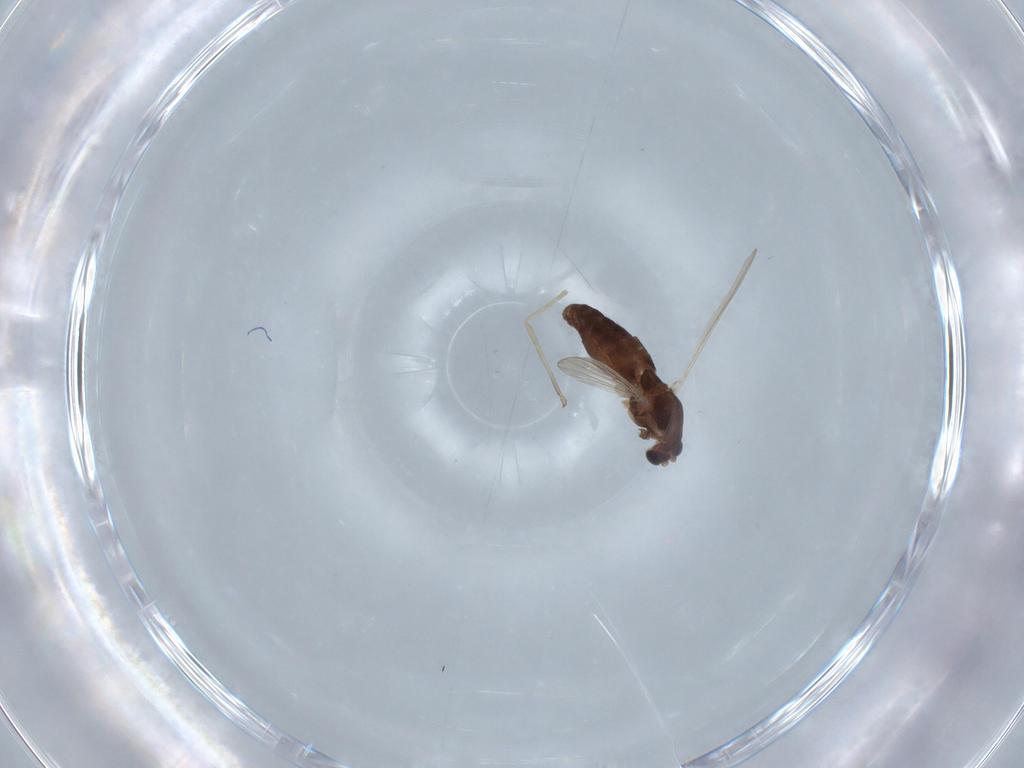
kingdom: Animalia
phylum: Arthropoda
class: Insecta
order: Diptera
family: Chironomidae
